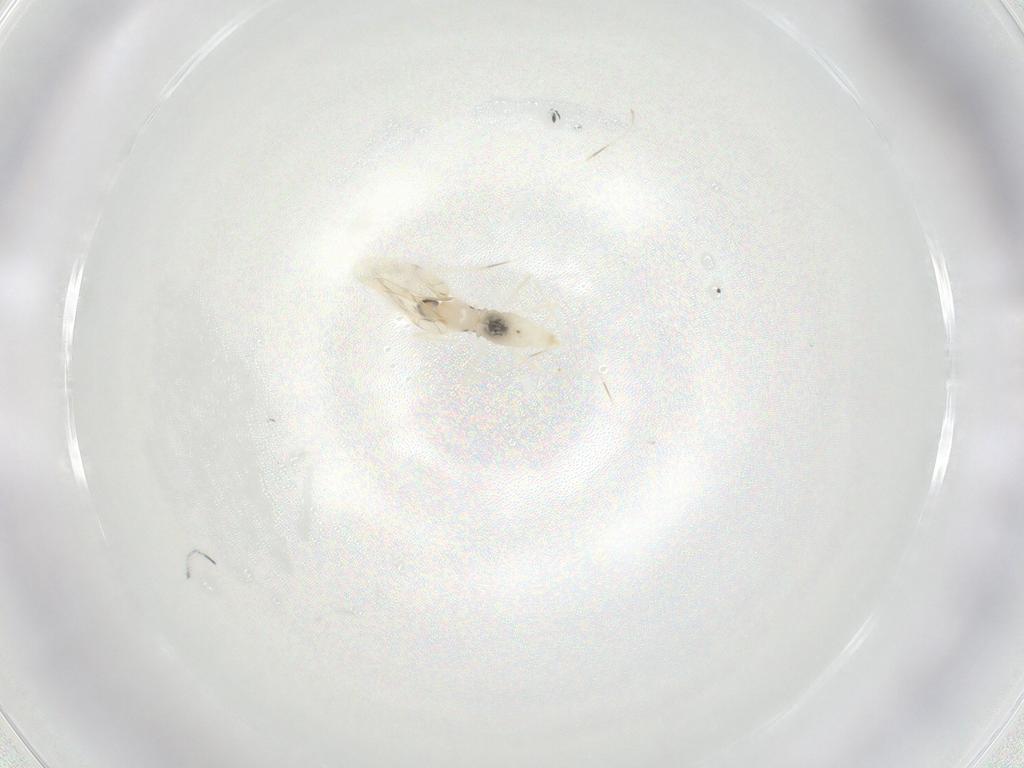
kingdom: Animalia
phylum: Arthropoda
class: Insecta
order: Diptera
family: Cecidomyiidae
